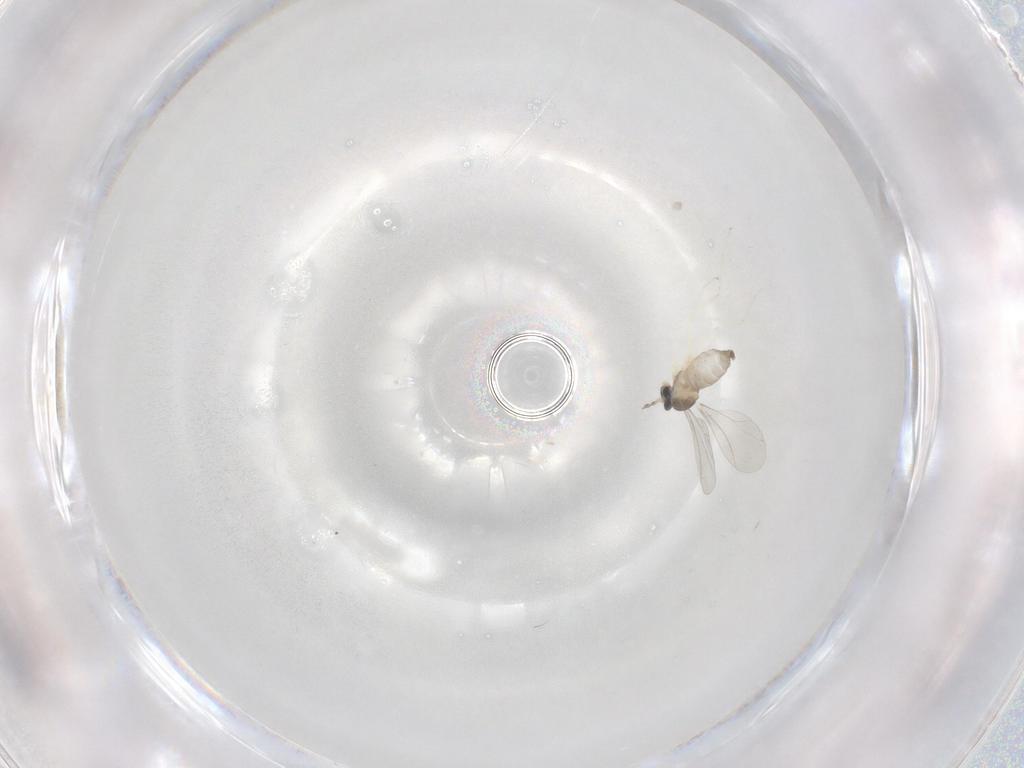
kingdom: Animalia
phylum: Arthropoda
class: Insecta
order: Diptera
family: Cecidomyiidae
